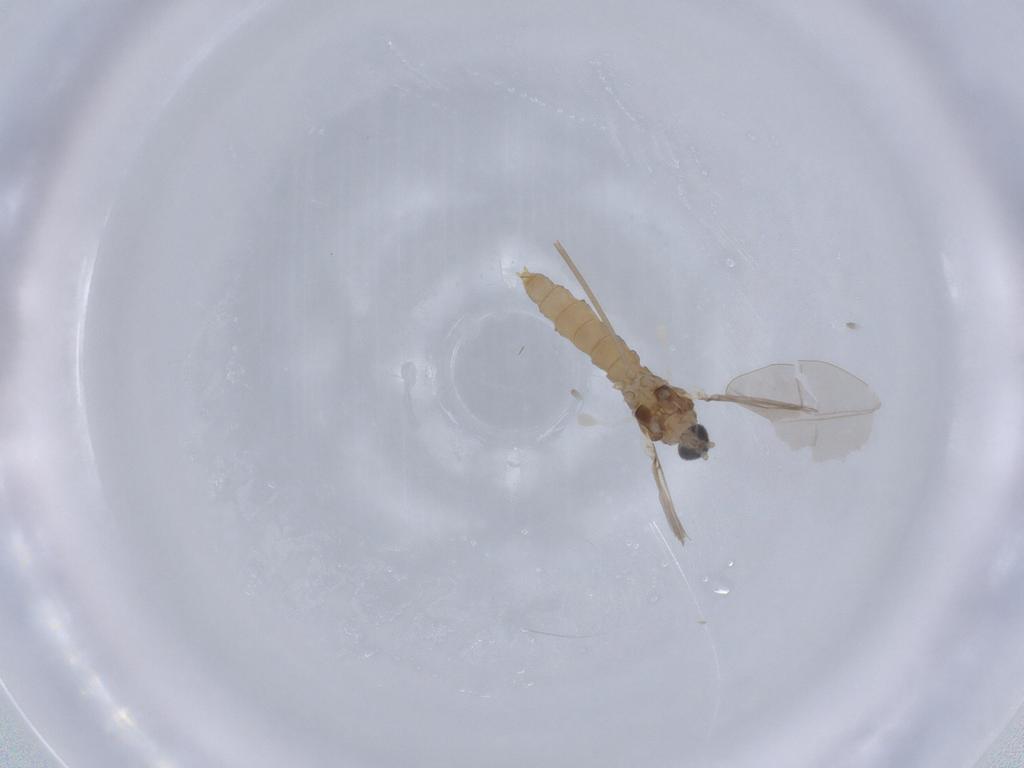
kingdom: Animalia
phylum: Arthropoda
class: Insecta
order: Diptera
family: Cecidomyiidae
